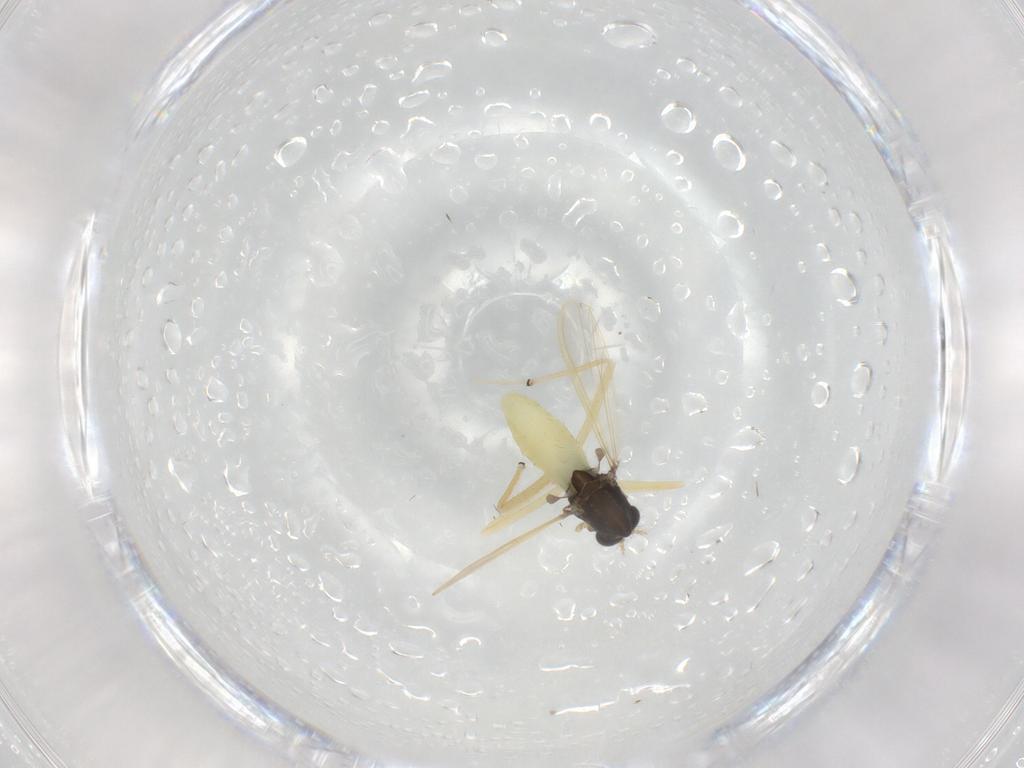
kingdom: Animalia
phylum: Arthropoda
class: Insecta
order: Diptera
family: Chironomidae
